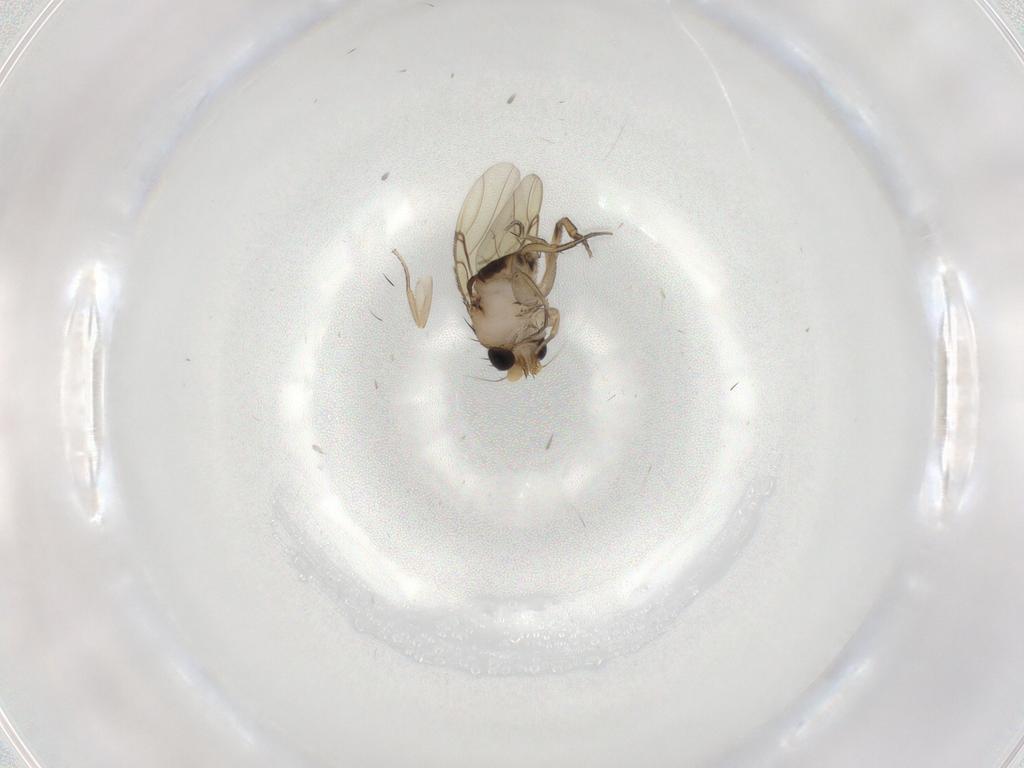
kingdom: Animalia
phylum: Arthropoda
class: Insecta
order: Diptera
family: Phoridae
